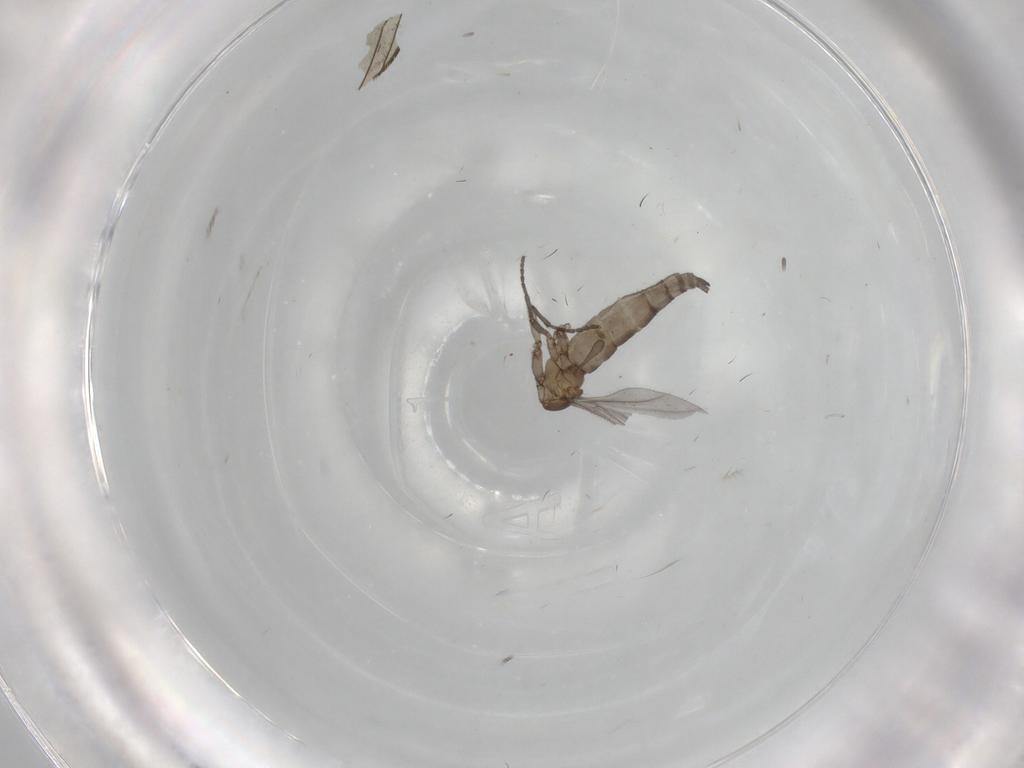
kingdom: Animalia
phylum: Arthropoda
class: Insecta
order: Diptera
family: Sciaridae
